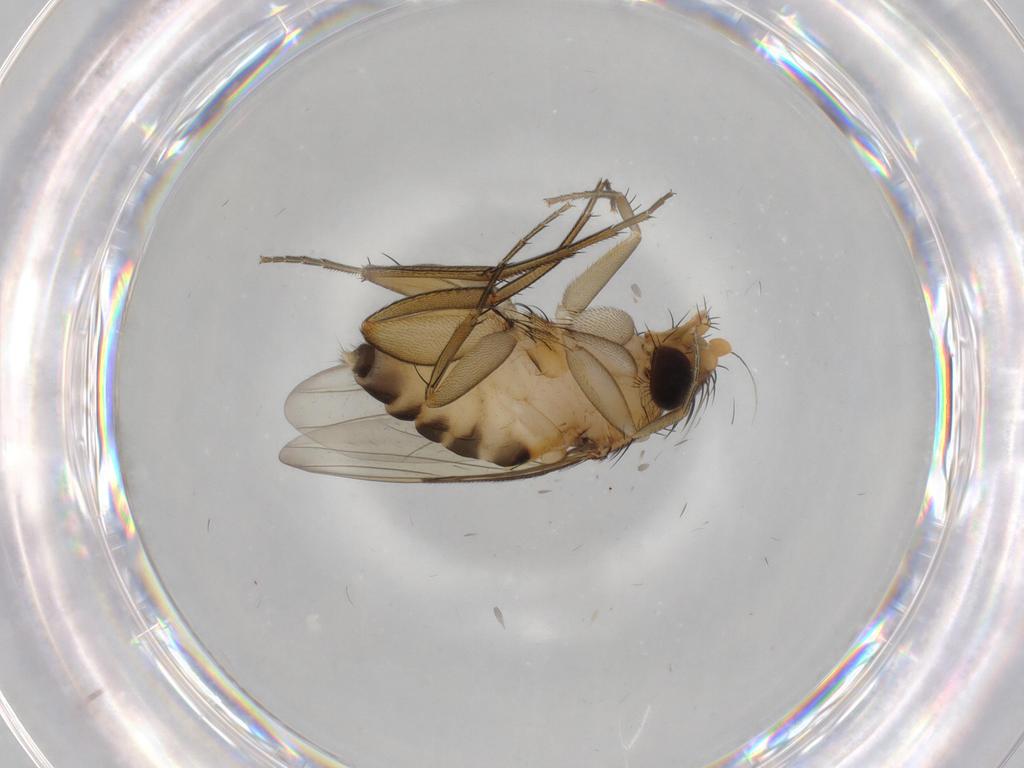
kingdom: Animalia
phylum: Arthropoda
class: Insecta
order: Diptera
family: Phoridae
